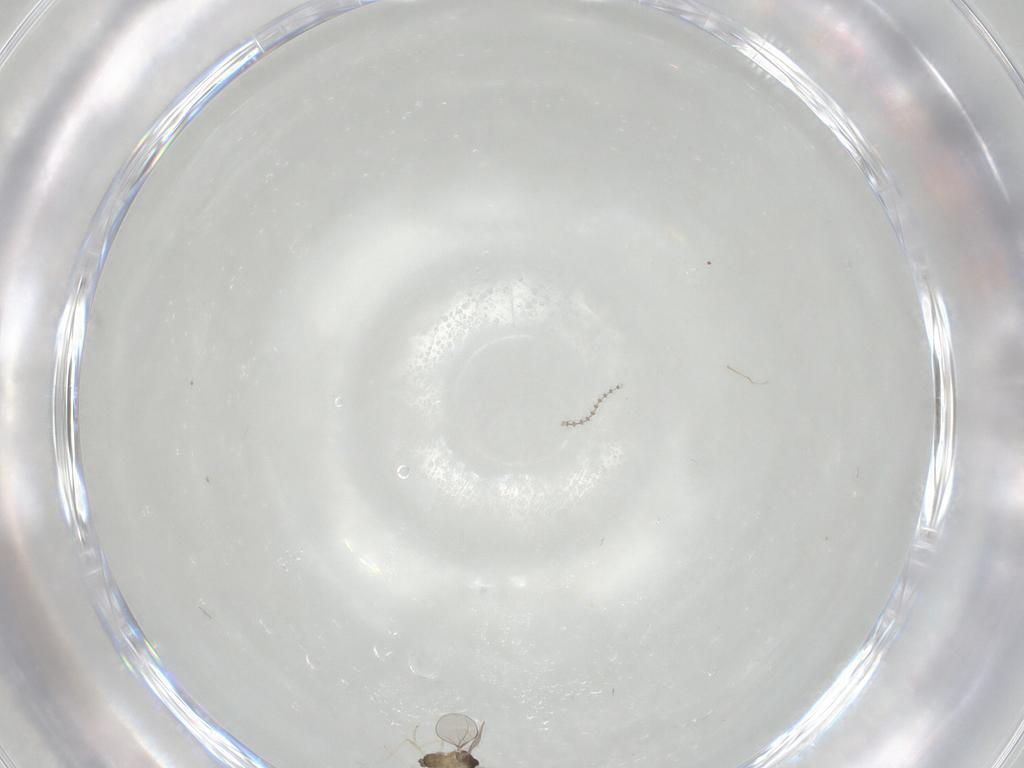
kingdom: Animalia
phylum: Arthropoda
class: Insecta
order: Diptera
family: Cecidomyiidae
